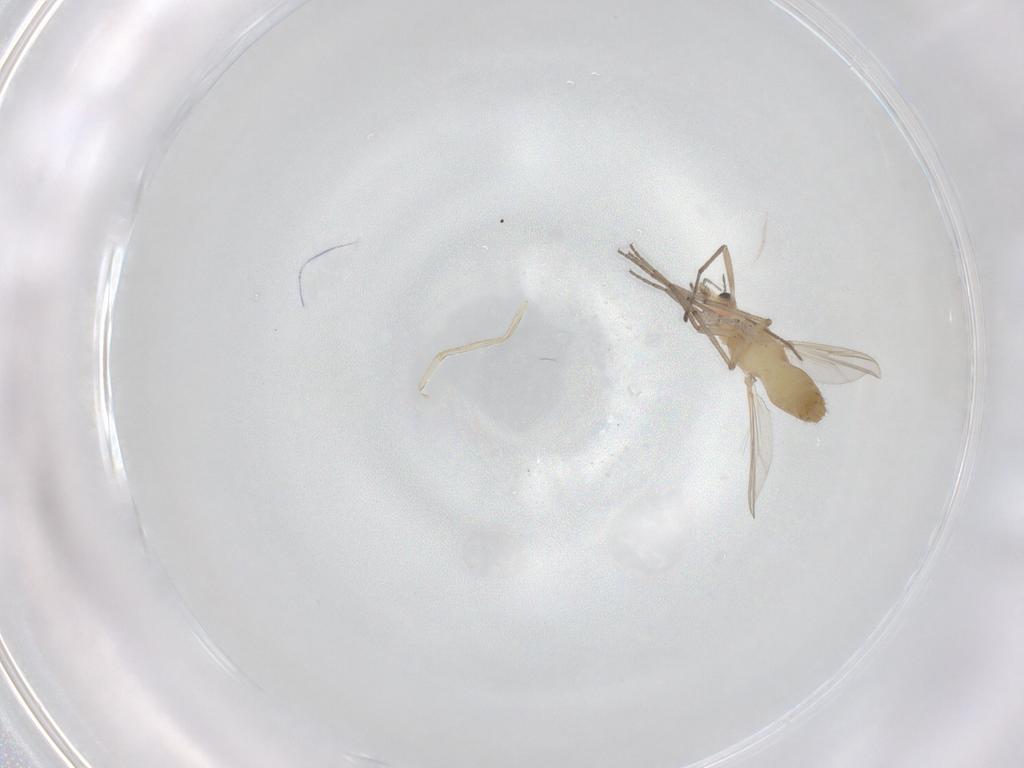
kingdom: Animalia
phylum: Arthropoda
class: Insecta
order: Diptera
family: Chironomidae
